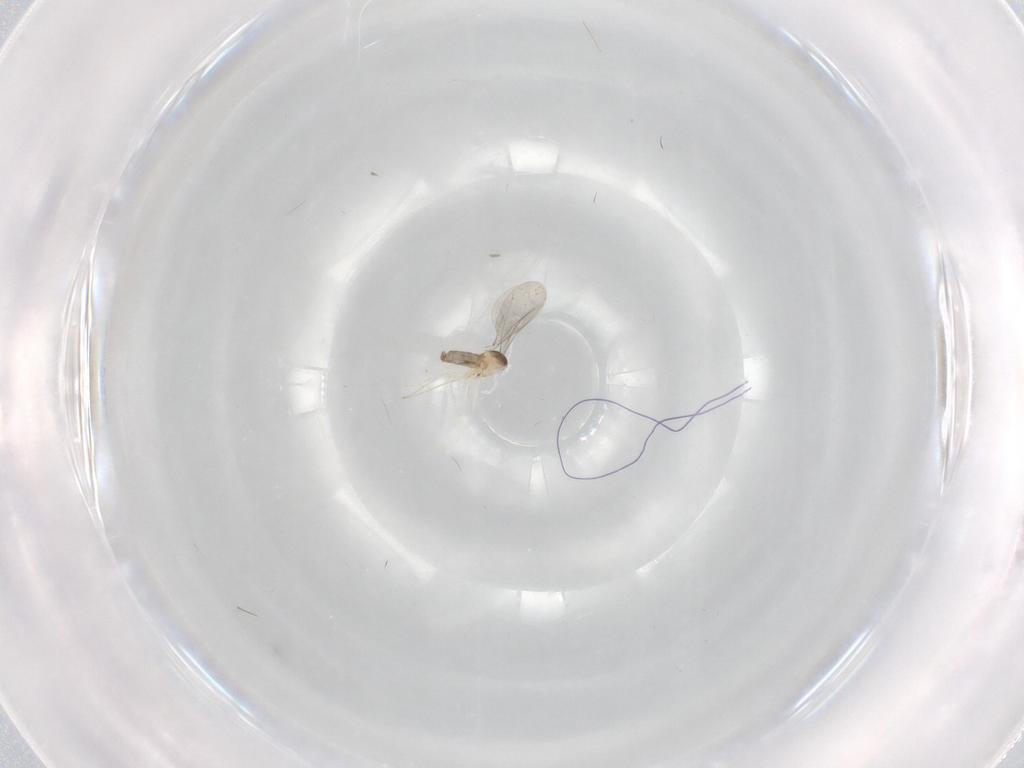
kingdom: Animalia
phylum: Arthropoda
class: Insecta
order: Diptera
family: Cecidomyiidae
